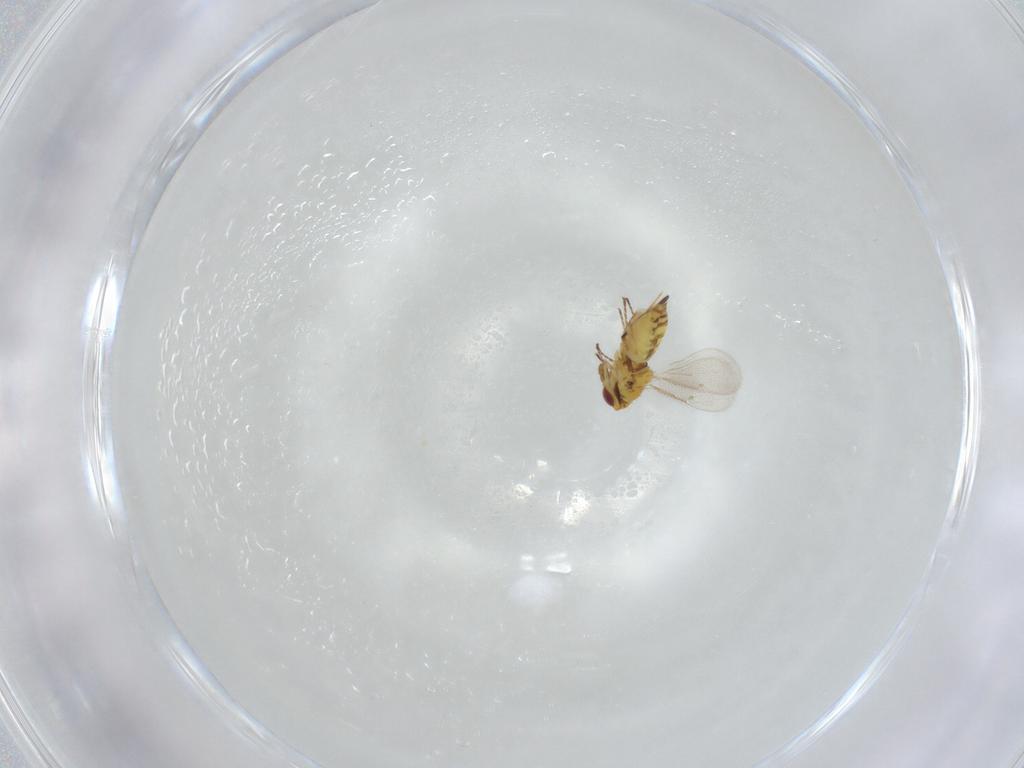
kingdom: Animalia
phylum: Arthropoda
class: Insecta
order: Hymenoptera
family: Eulophidae
